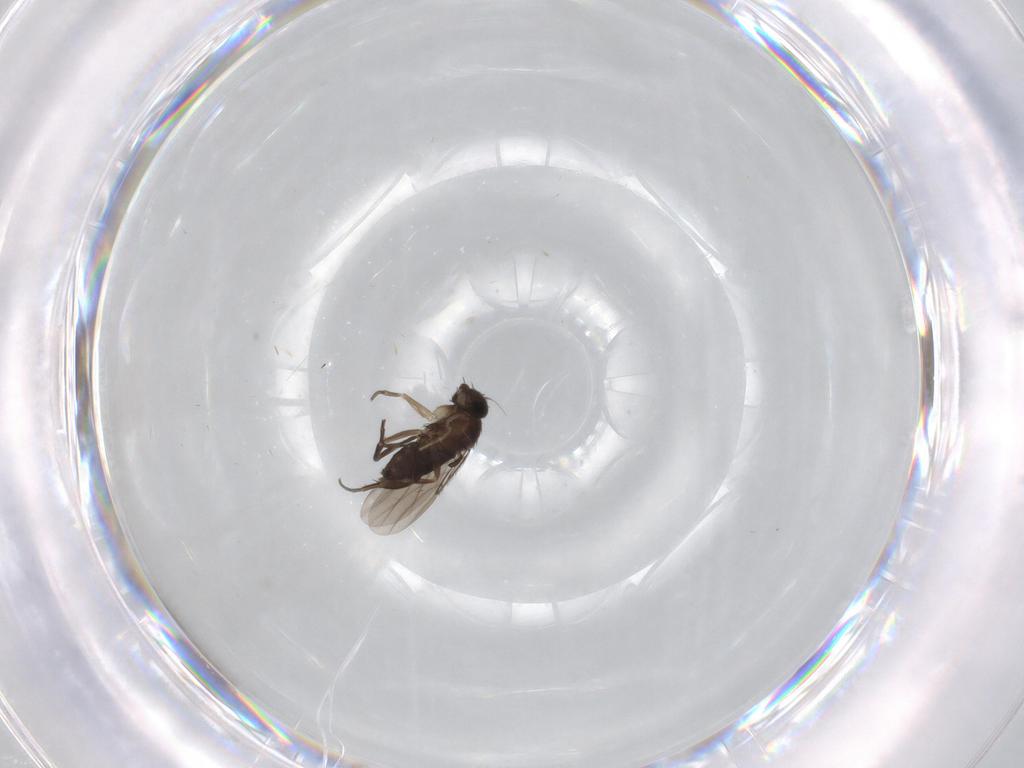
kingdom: Animalia
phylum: Arthropoda
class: Insecta
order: Diptera
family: Phoridae
